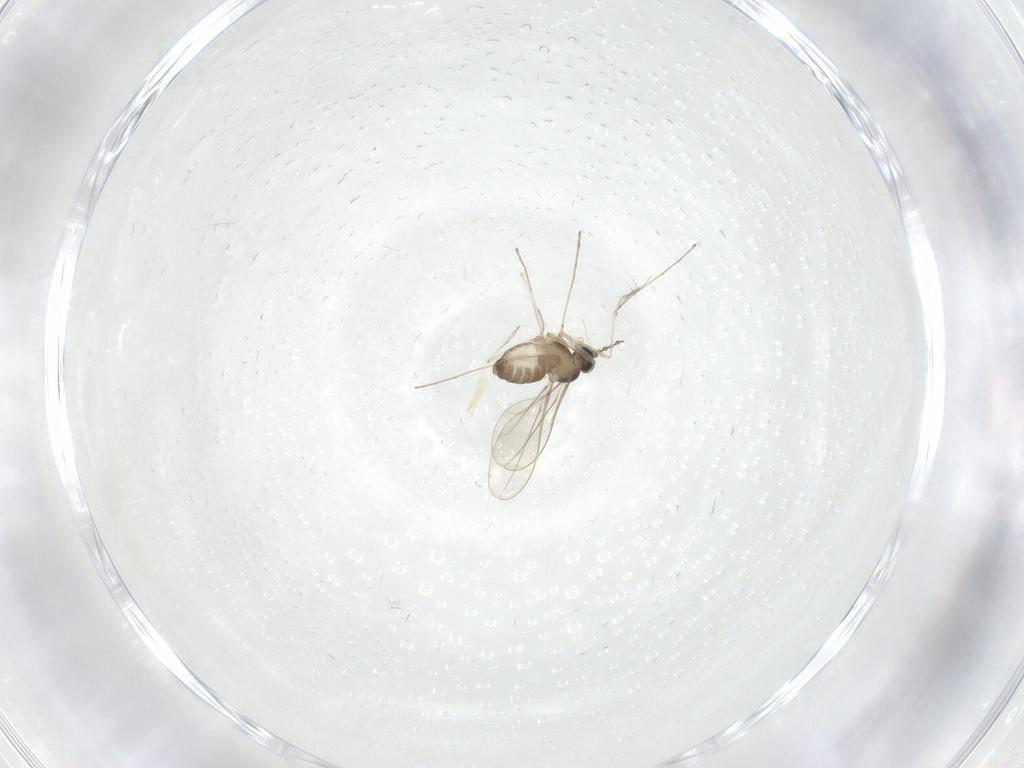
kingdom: Animalia
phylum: Arthropoda
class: Insecta
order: Diptera
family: Cecidomyiidae
